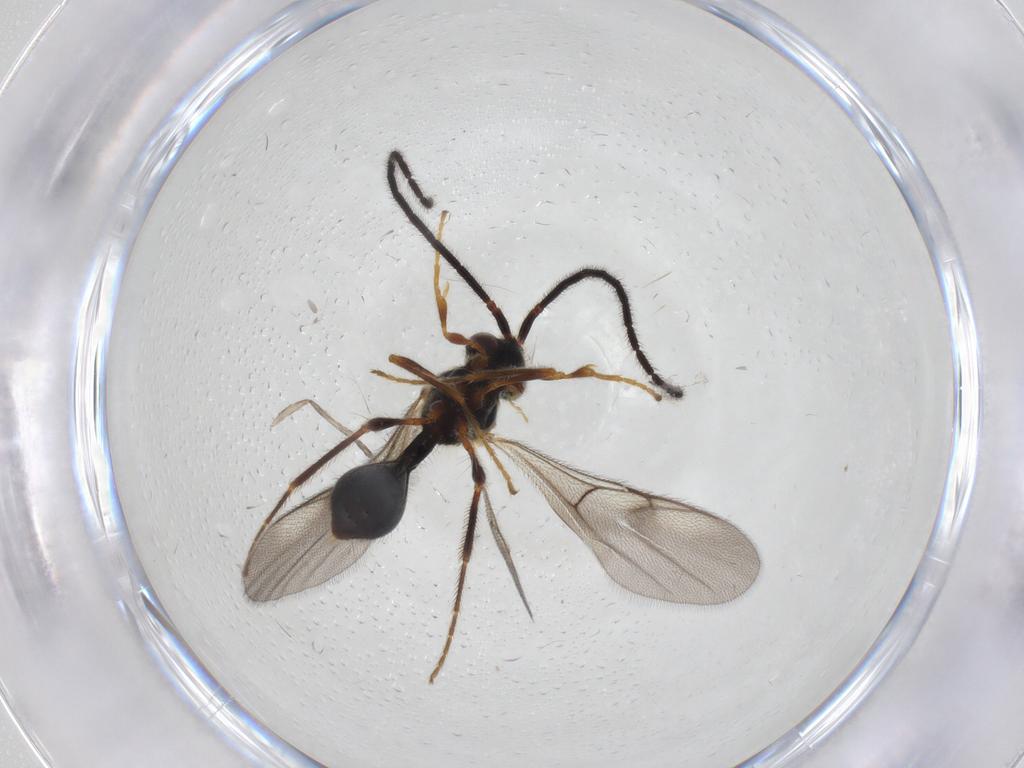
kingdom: Animalia
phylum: Arthropoda
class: Insecta
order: Hymenoptera
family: Diapriidae
